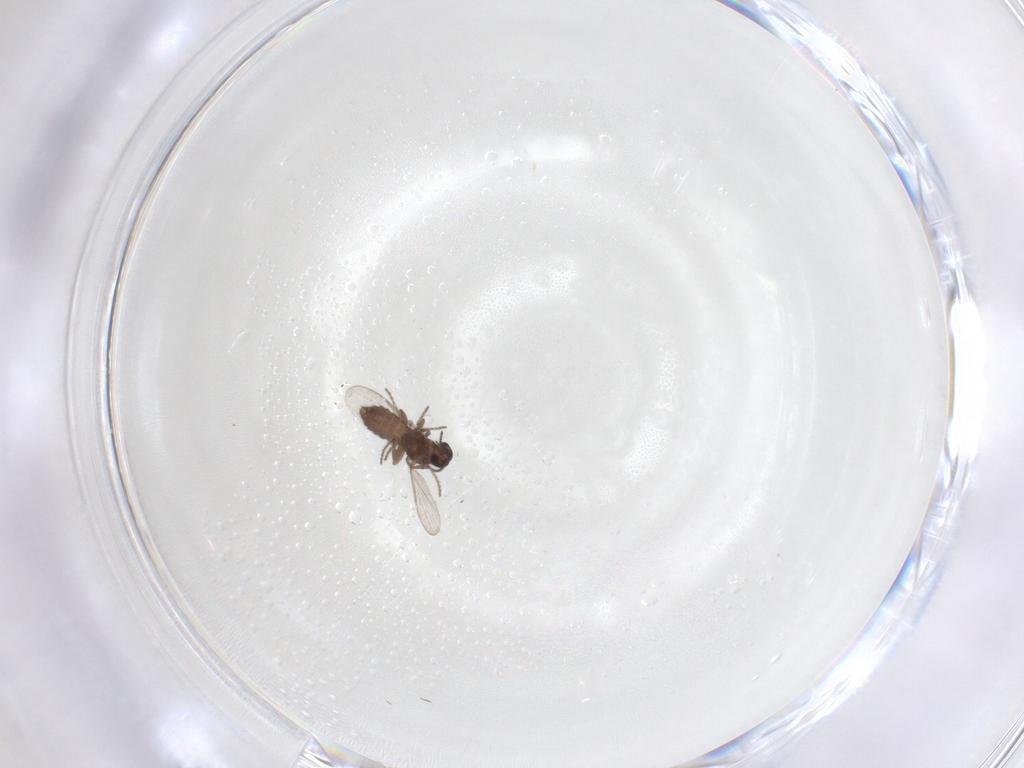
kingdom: Animalia
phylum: Arthropoda
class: Insecta
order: Diptera
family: Ceratopogonidae
